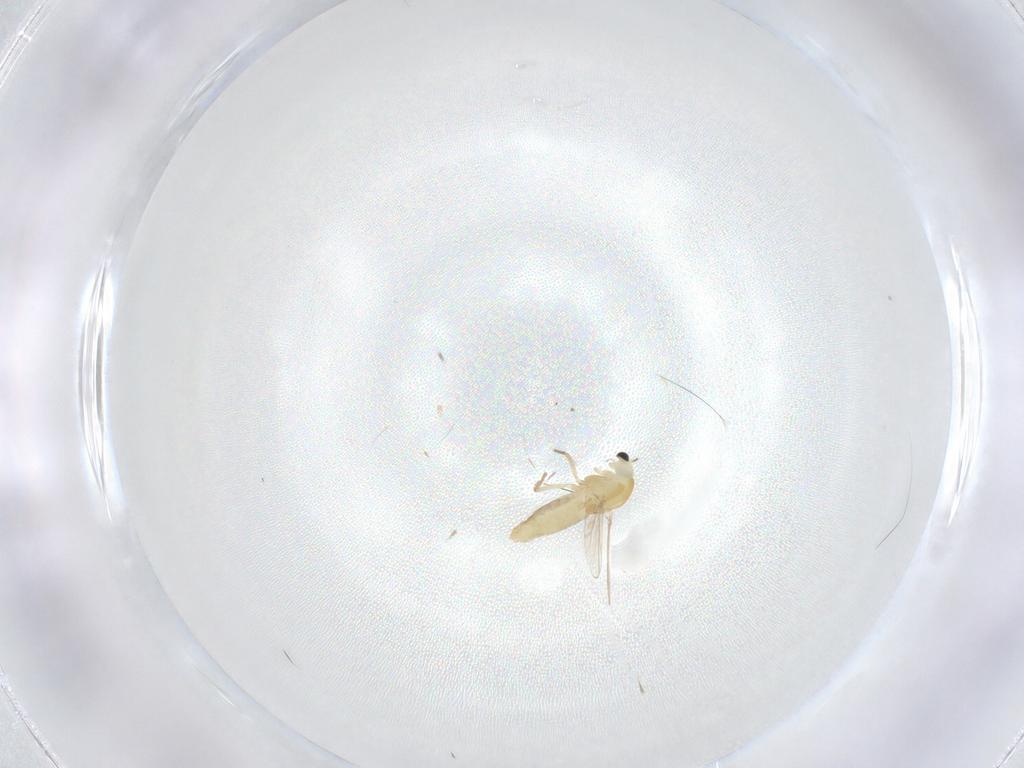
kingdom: Animalia
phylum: Arthropoda
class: Insecta
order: Diptera
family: Chironomidae
